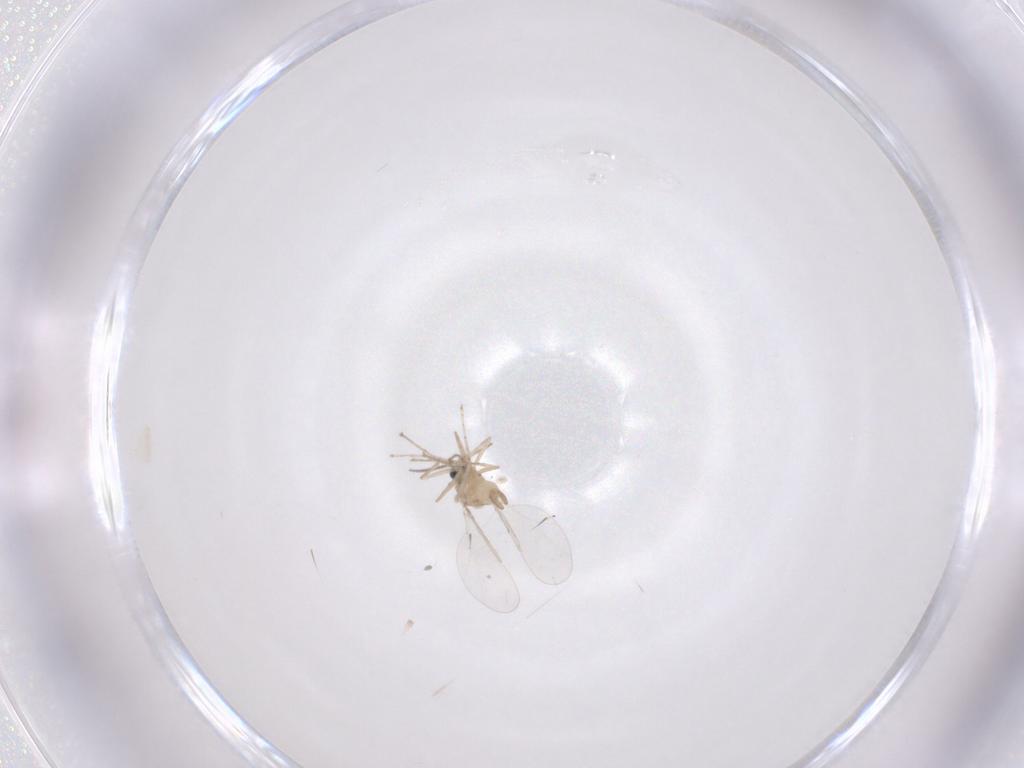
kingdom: Animalia
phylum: Arthropoda
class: Insecta
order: Diptera
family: Cecidomyiidae
